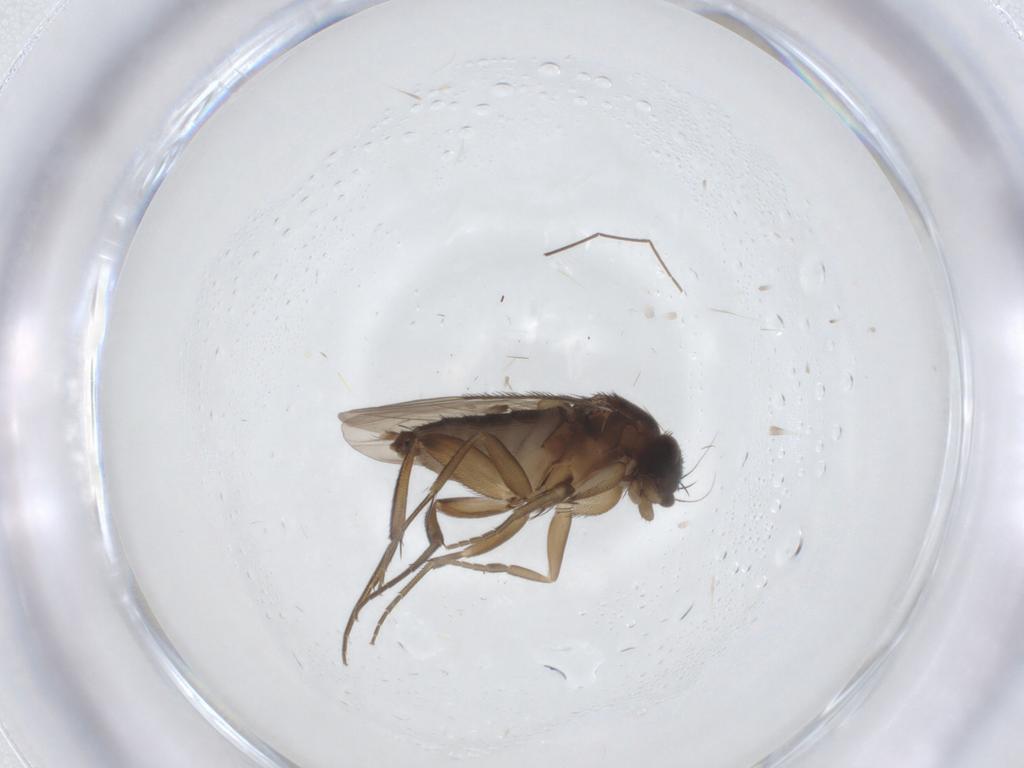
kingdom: Animalia
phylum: Arthropoda
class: Insecta
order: Diptera
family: Phoridae
